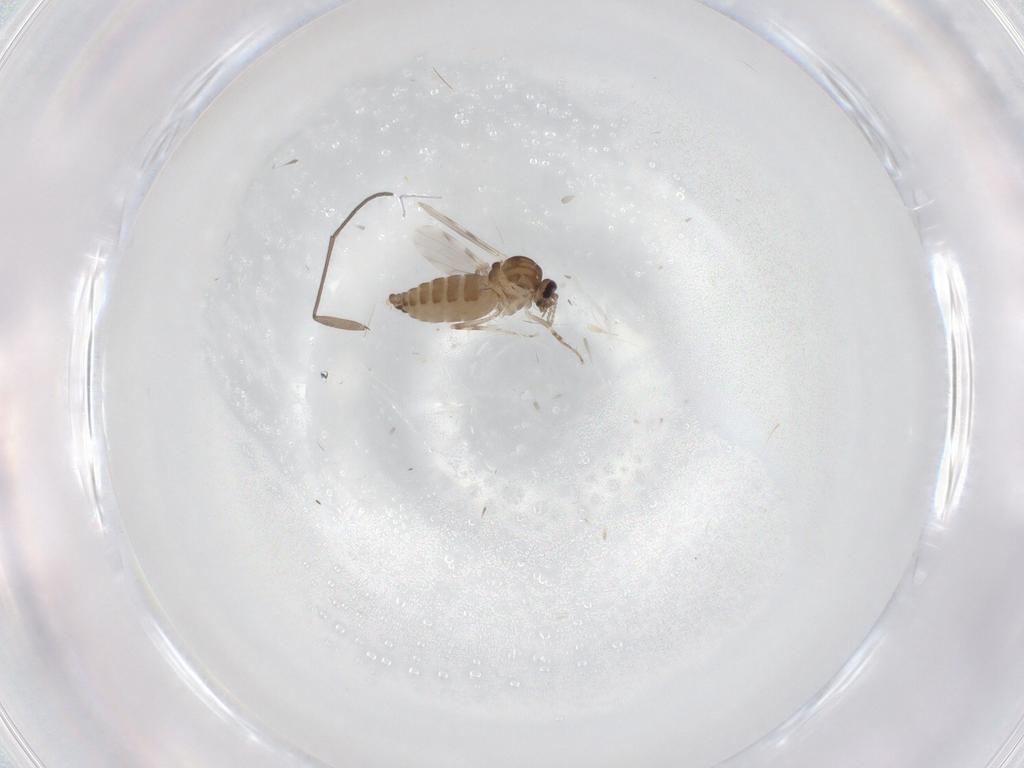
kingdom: Animalia
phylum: Arthropoda
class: Insecta
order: Diptera
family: Ceratopogonidae
